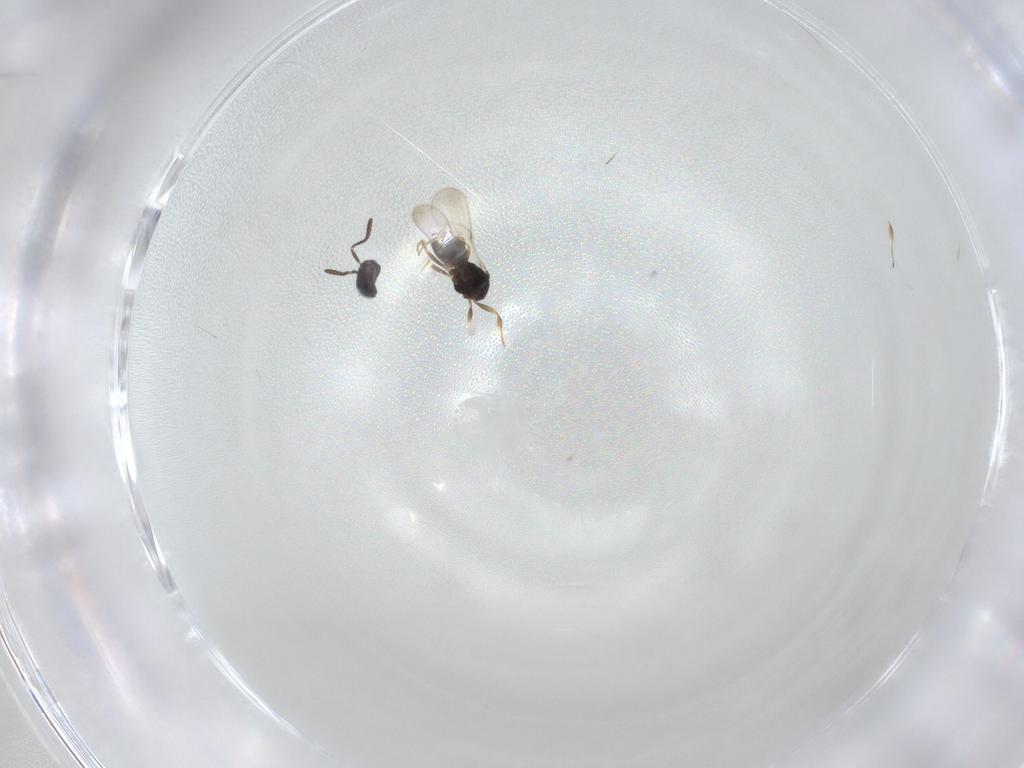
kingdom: Animalia
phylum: Arthropoda
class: Insecta
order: Hymenoptera
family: Scelionidae
